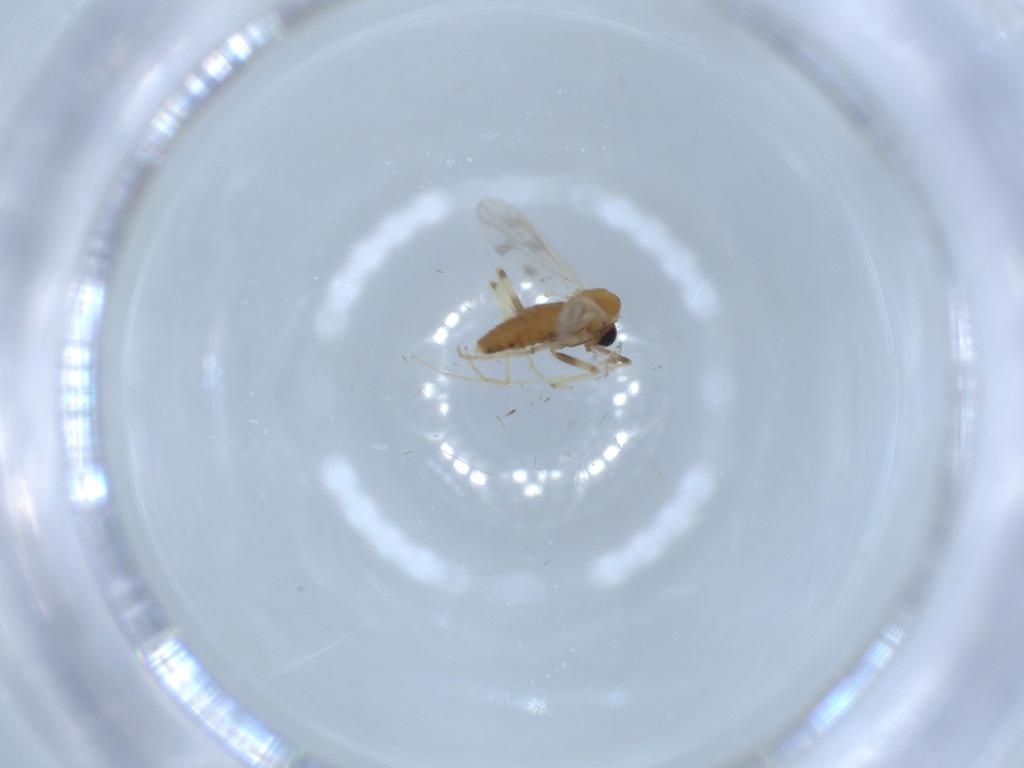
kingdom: Animalia
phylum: Arthropoda
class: Insecta
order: Diptera
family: Chironomidae
